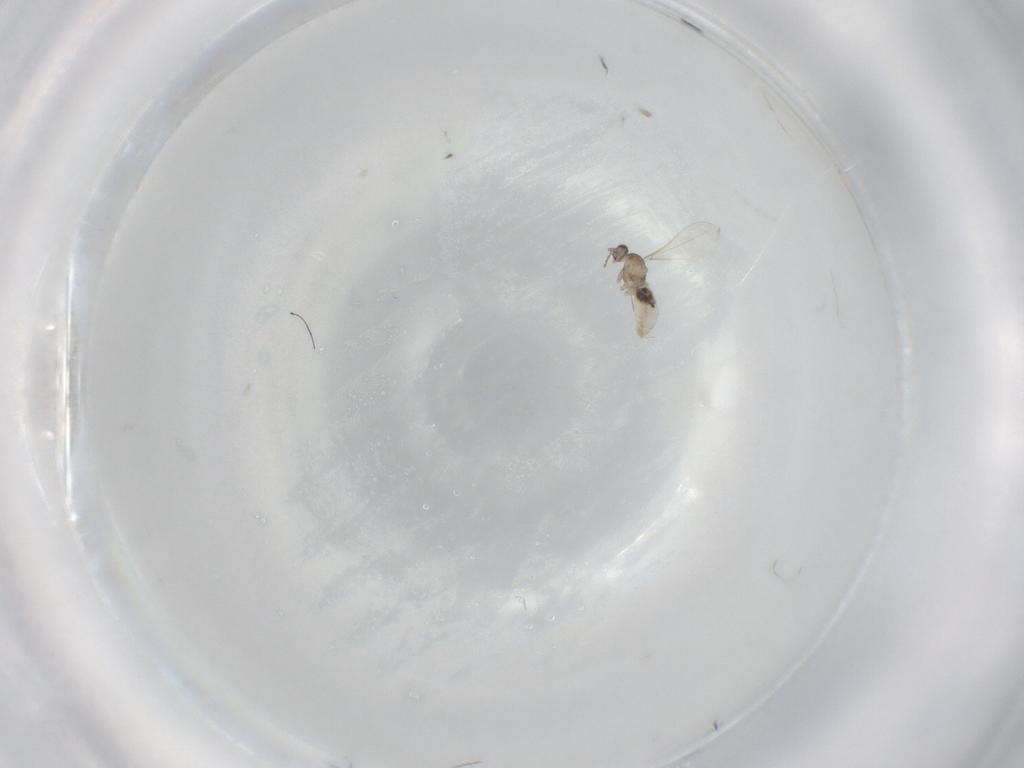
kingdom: Animalia
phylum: Arthropoda
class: Insecta
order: Diptera
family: Cecidomyiidae
